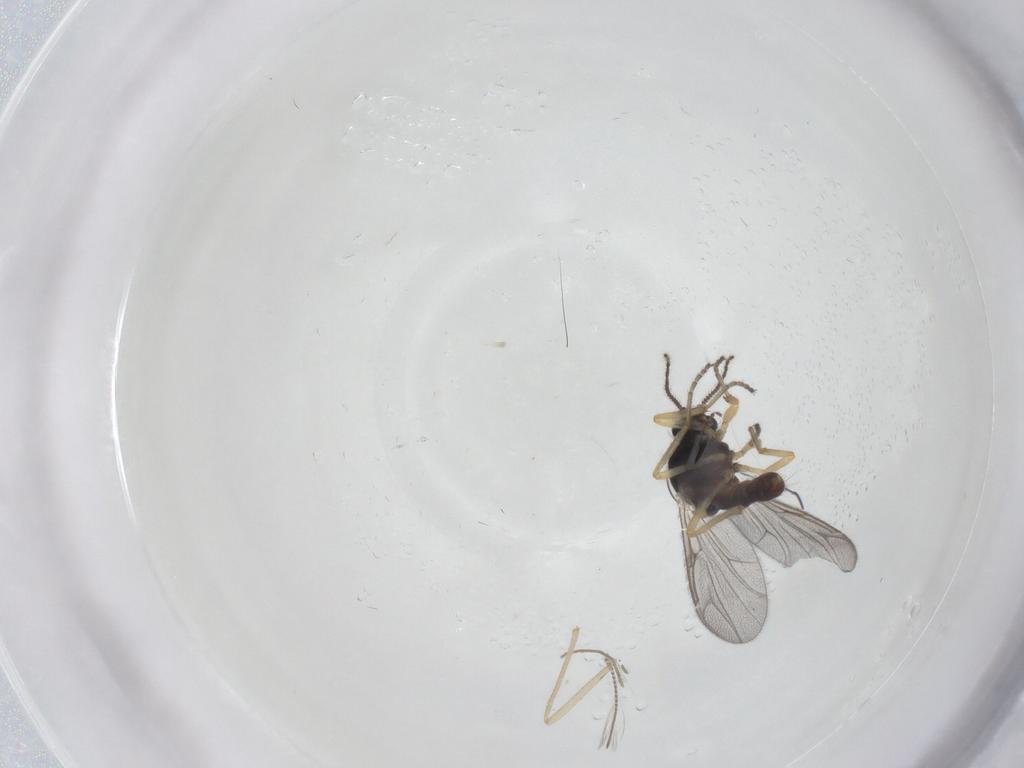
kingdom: Animalia
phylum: Arthropoda
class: Insecta
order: Diptera
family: Ceratopogonidae
